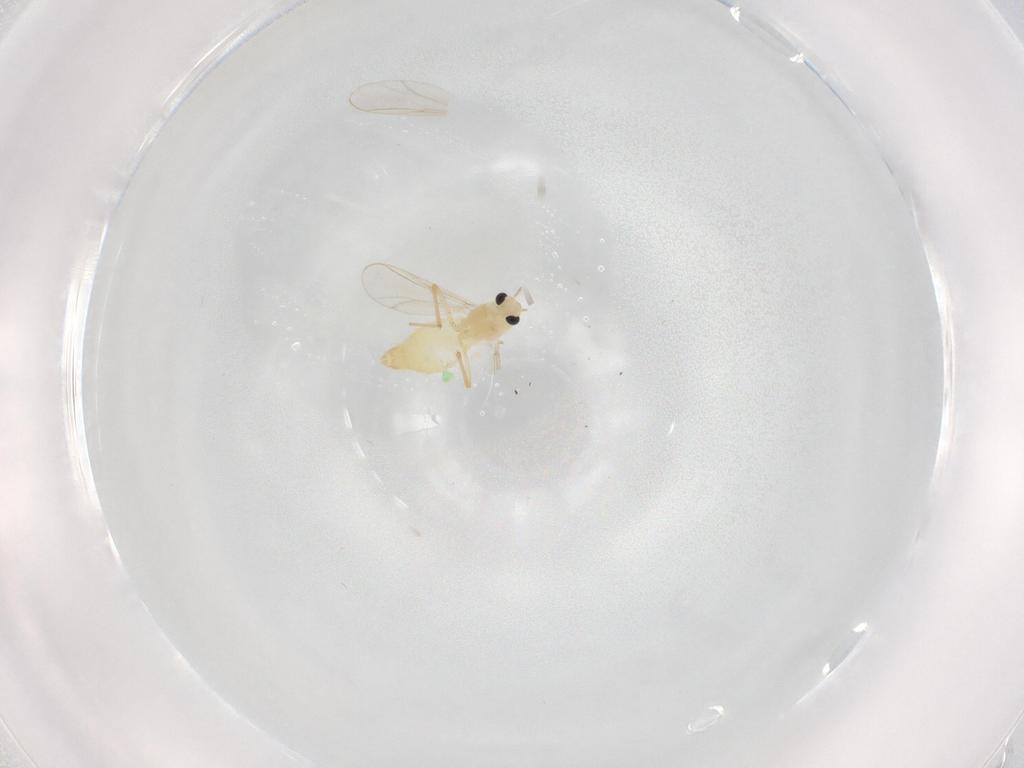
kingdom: Animalia
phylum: Arthropoda
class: Insecta
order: Diptera
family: Chironomidae
